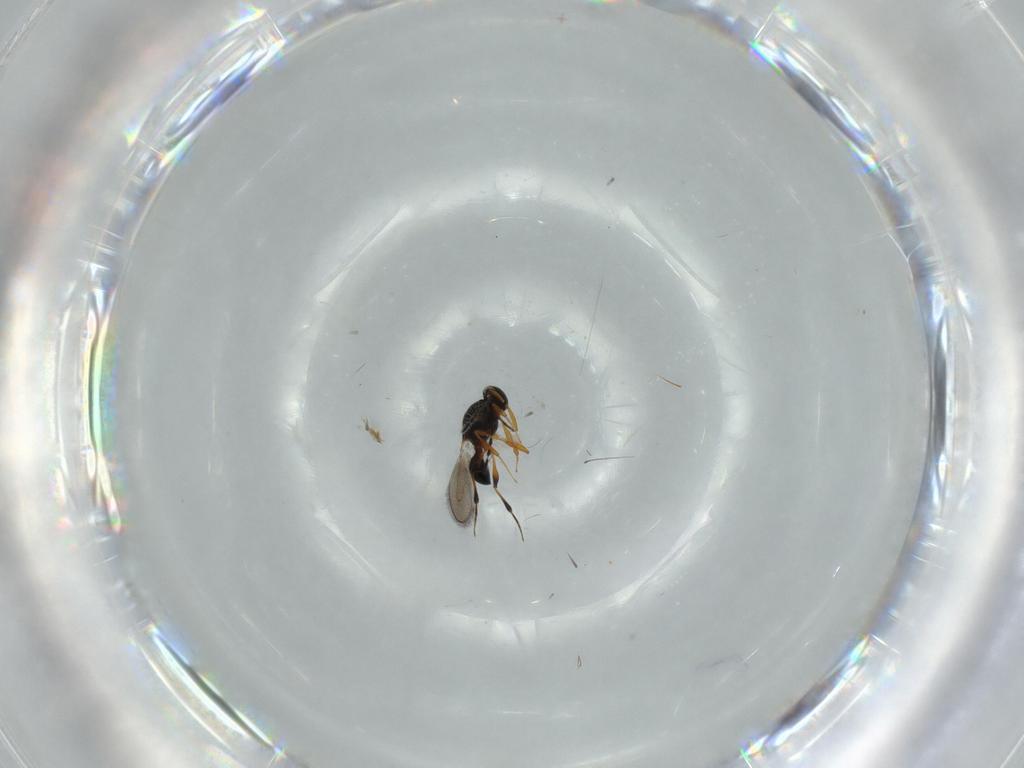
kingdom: Animalia
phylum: Arthropoda
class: Insecta
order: Hymenoptera
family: Platygastridae
